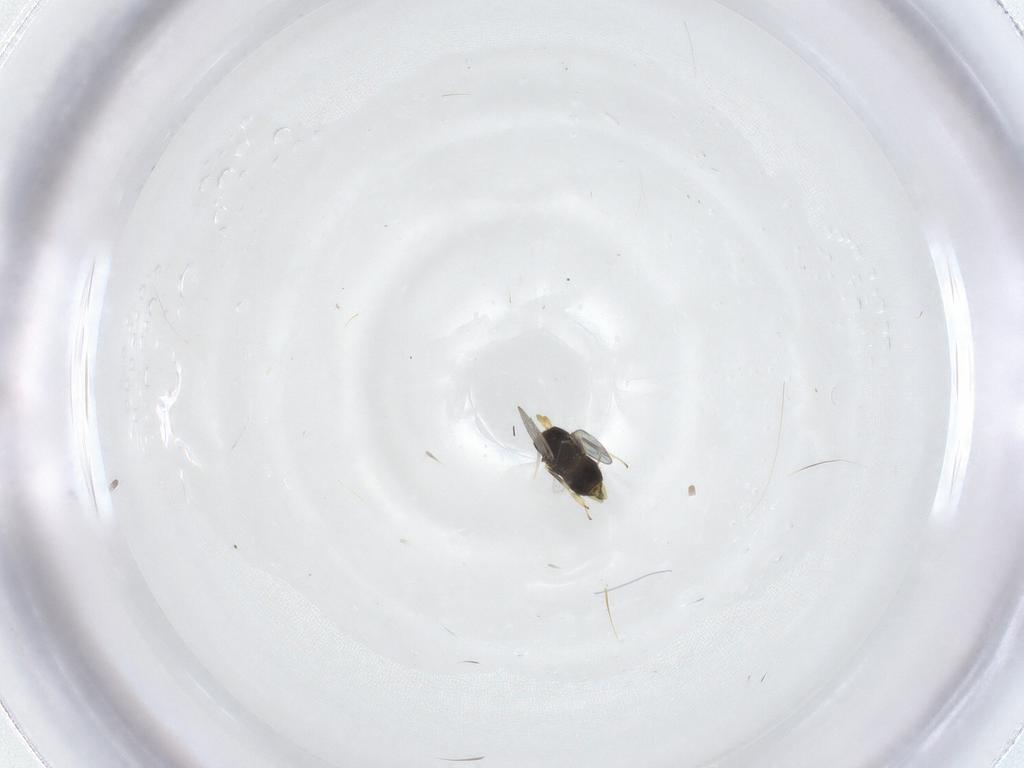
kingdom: Animalia
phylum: Arthropoda
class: Insecta
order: Hymenoptera
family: Aphelinidae
